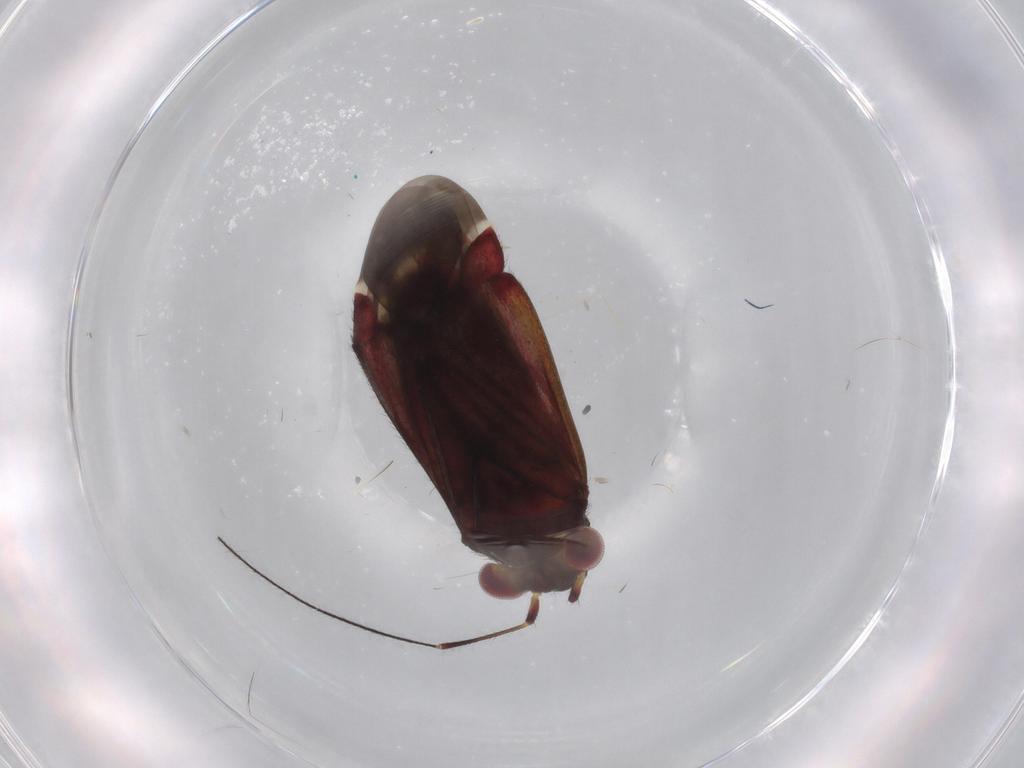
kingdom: Animalia
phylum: Arthropoda
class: Insecta
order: Hemiptera
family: Miridae
